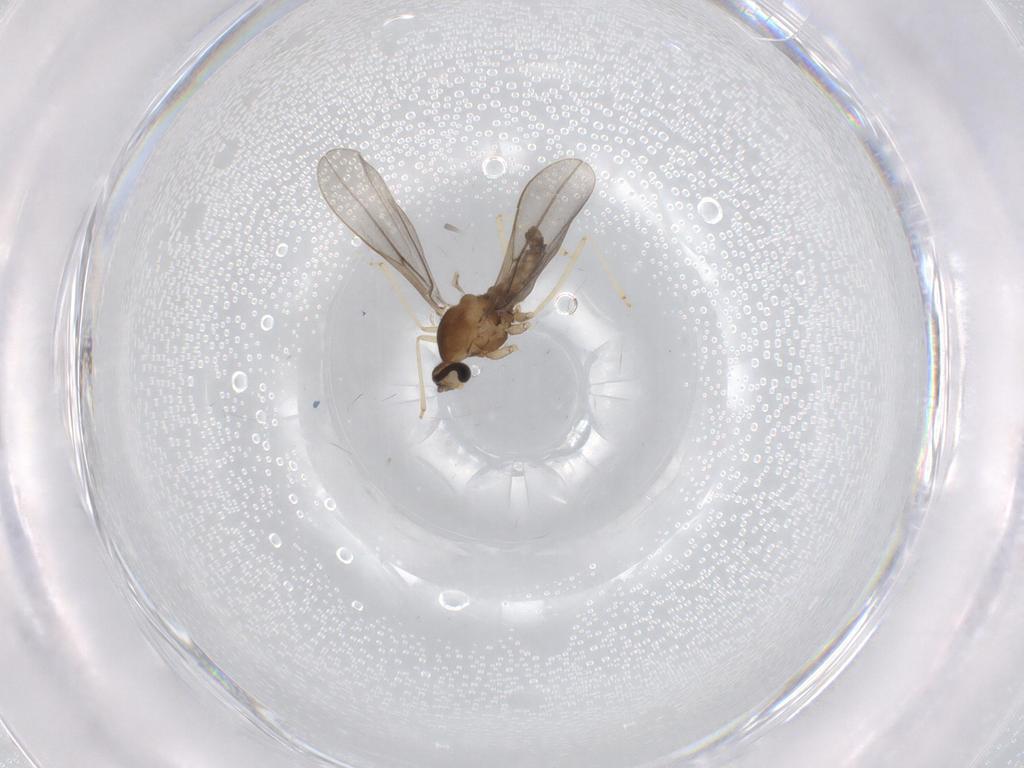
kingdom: Animalia
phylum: Arthropoda
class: Insecta
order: Diptera
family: Cecidomyiidae
